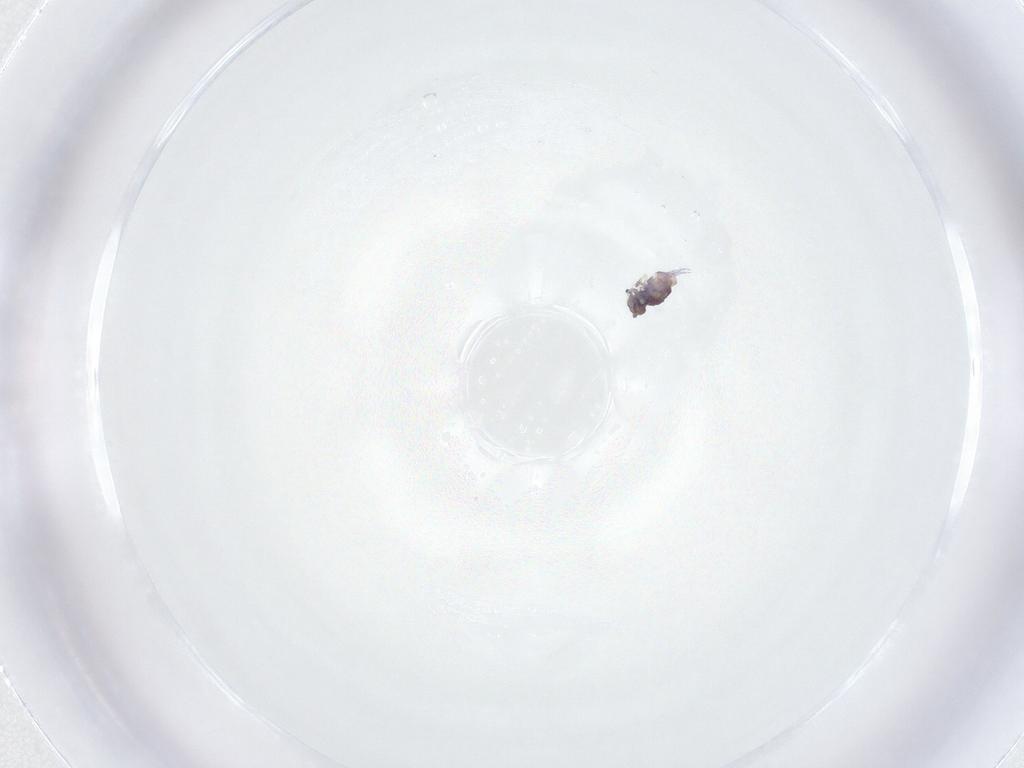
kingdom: Animalia
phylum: Arthropoda
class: Collembola
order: Symphypleona
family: Sminthuridae
